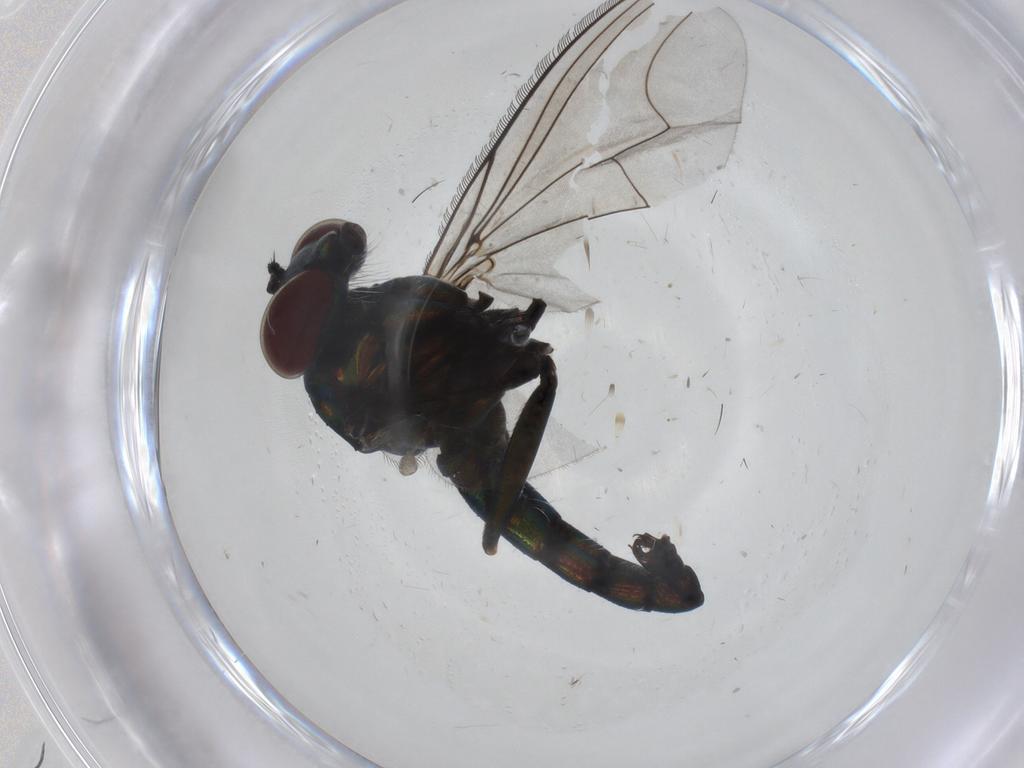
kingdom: Animalia
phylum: Arthropoda
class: Insecta
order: Diptera
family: Dolichopodidae
